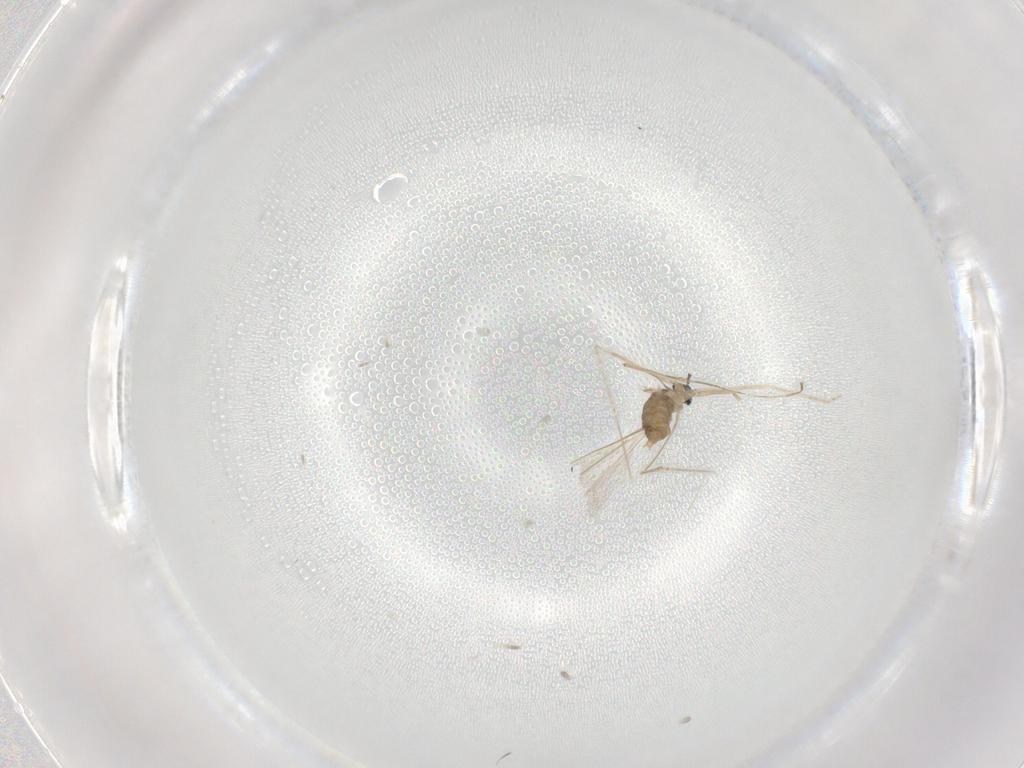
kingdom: Animalia
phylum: Arthropoda
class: Insecta
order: Diptera
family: Cecidomyiidae
